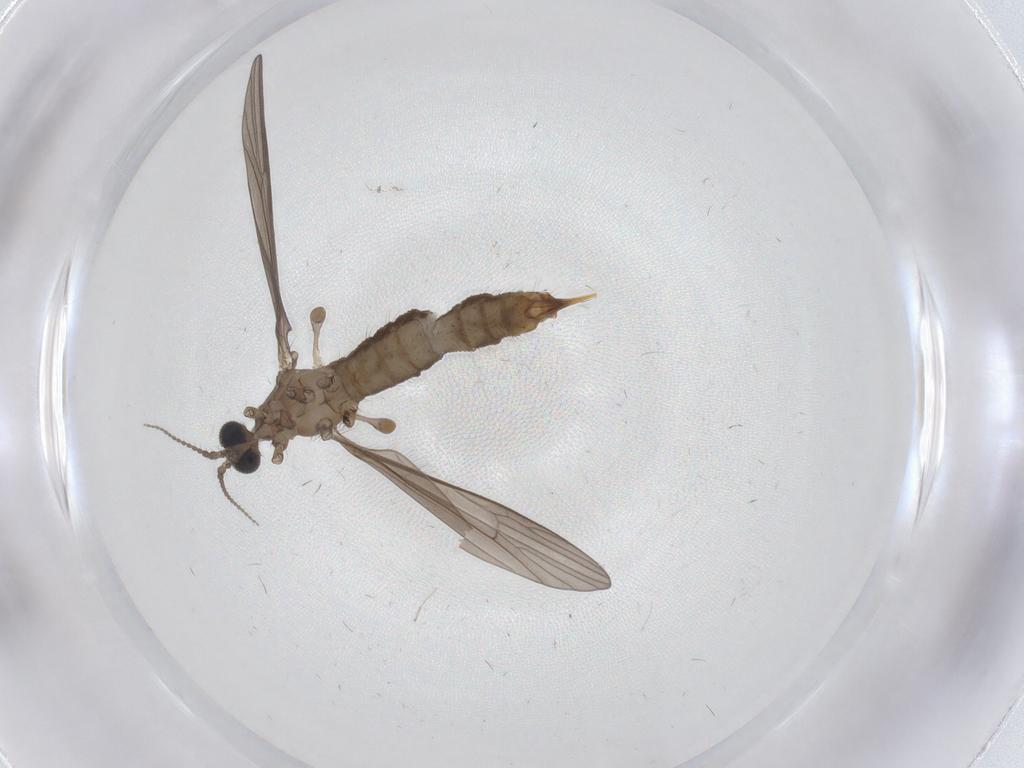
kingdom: Animalia
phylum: Arthropoda
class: Insecta
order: Diptera
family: Limoniidae
